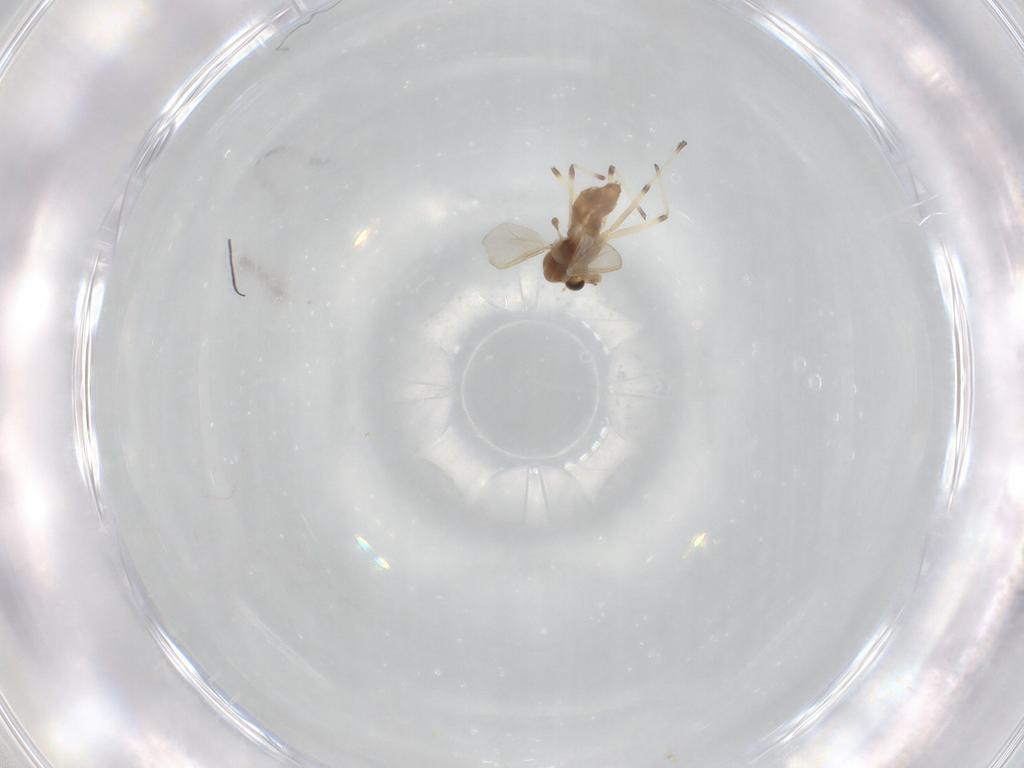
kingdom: Animalia
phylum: Arthropoda
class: Insecta
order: Diptera
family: Chironomidae
